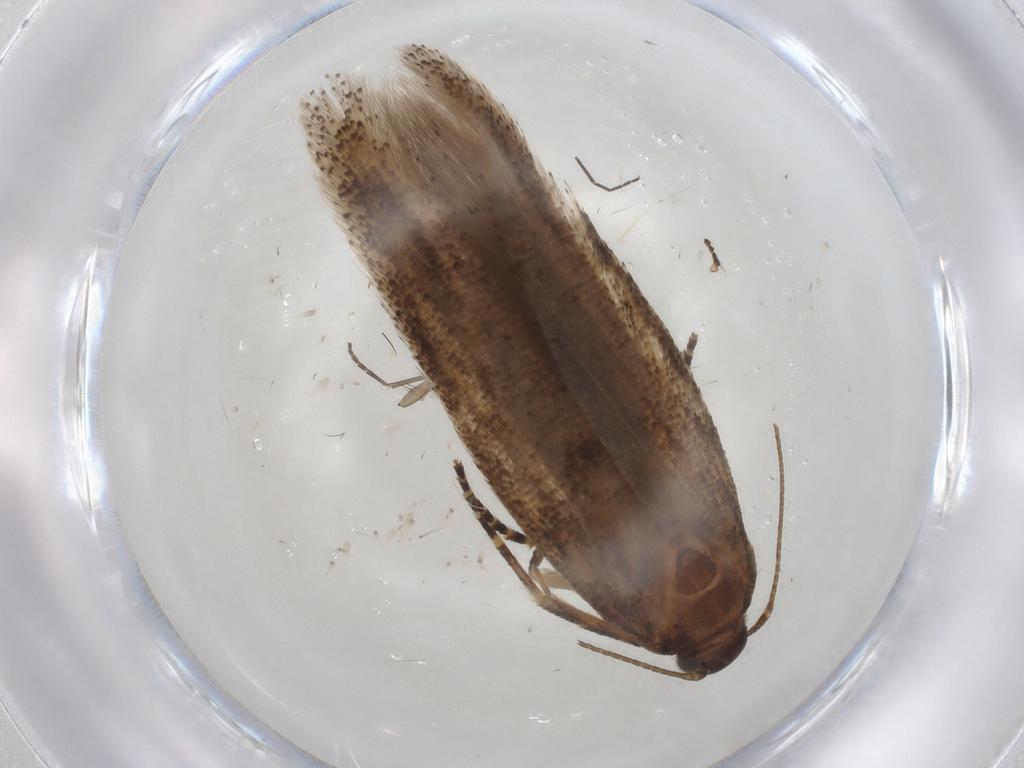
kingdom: Animalia
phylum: Arthropoda
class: Insecta
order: Lepidoptera
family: Gelechiidae
